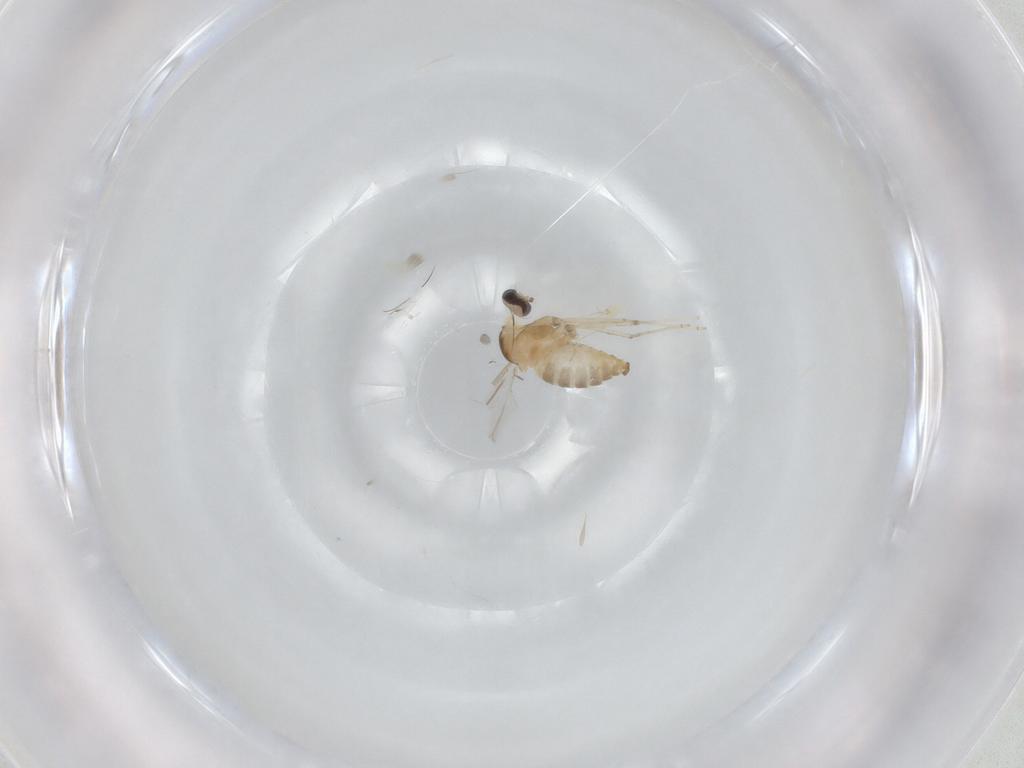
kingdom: Animalia
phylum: Arthropoda
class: Insecta
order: Diptera
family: Cecidomyiidae
